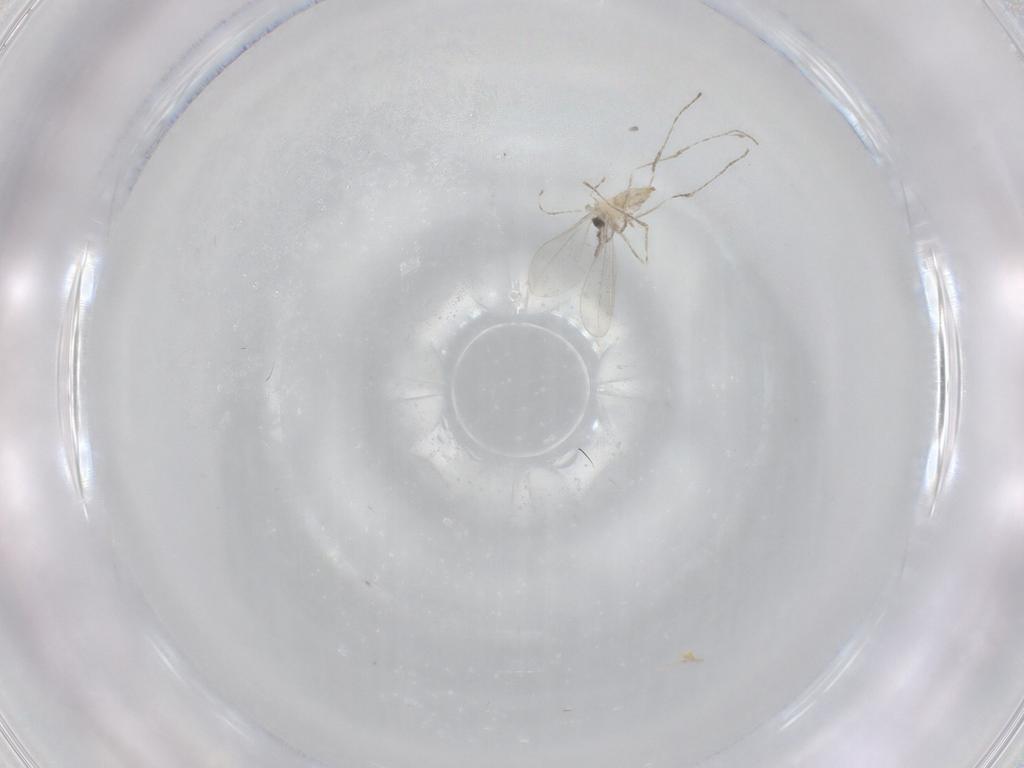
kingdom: Animalia
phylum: Arthropoda
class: Insecta
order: Diptera
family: Cecidomyiidae
